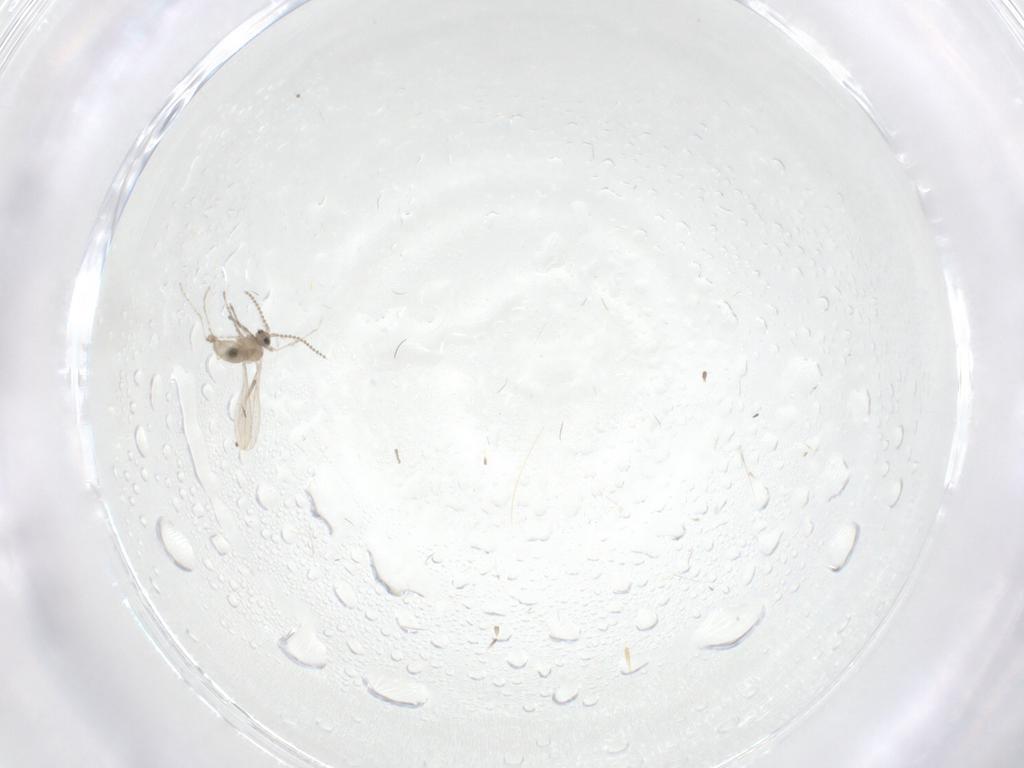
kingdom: Animalia
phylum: Arthropoda
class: Insecta
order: Diptera
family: Cecidomyiidae
